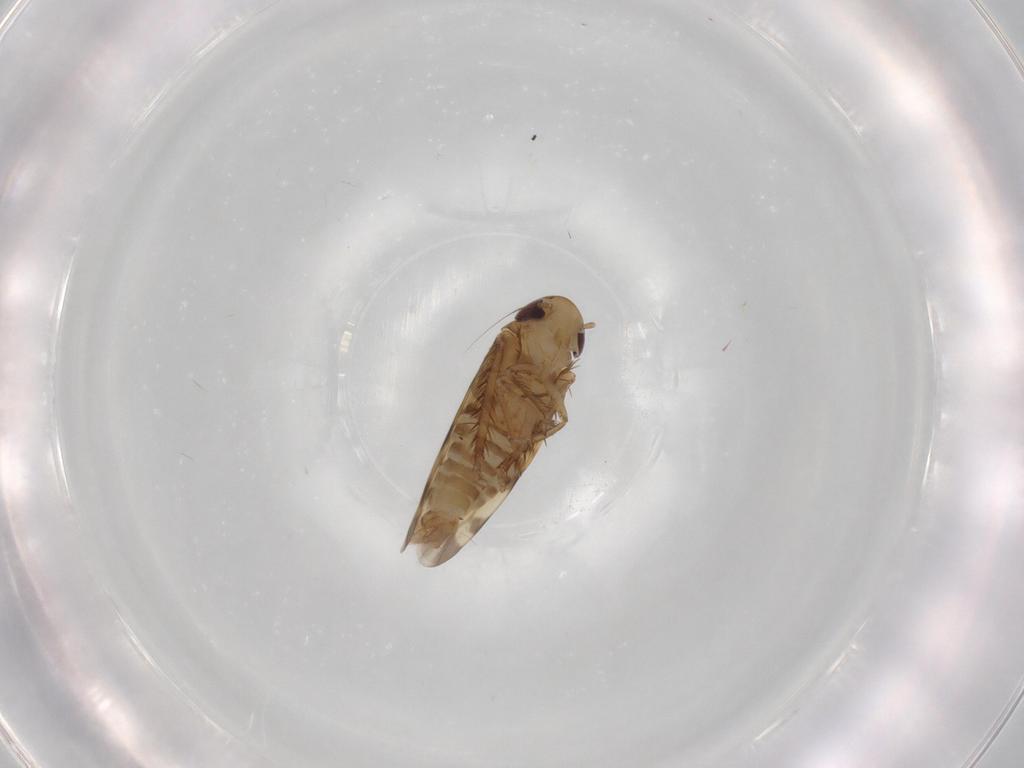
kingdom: Animalia
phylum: Arthropoda
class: Insecta
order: Hemiptera
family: Cicadellidae
